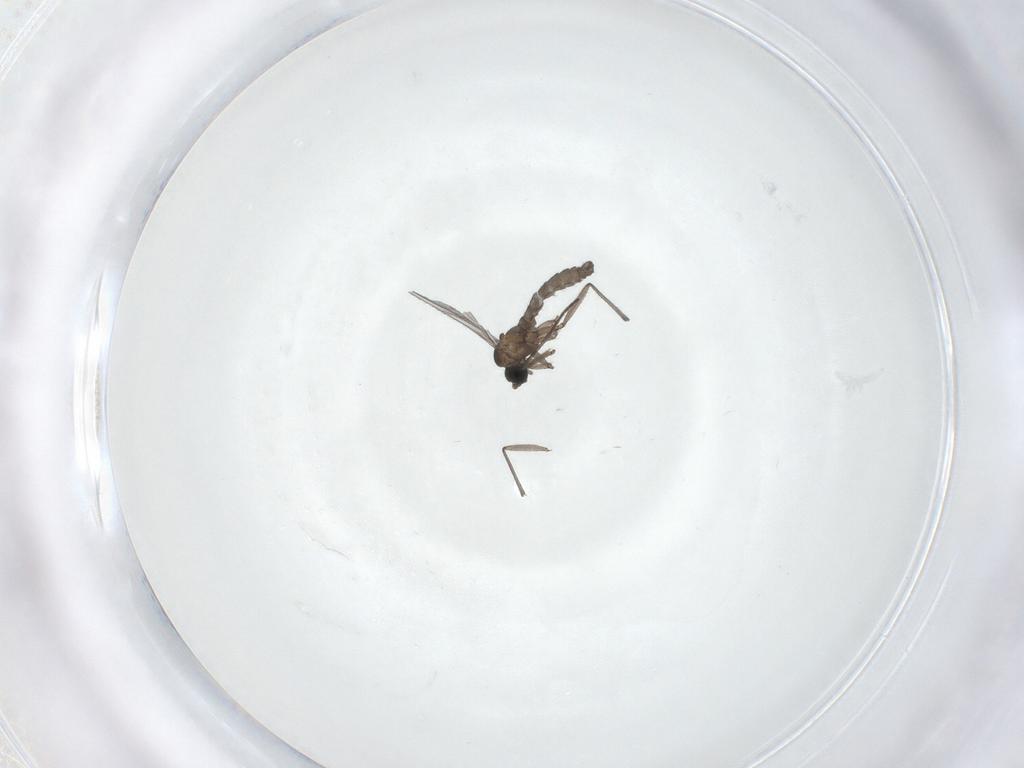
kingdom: Animalia
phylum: Arthropoda
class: Insecta
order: Diptera
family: Sciaridae
